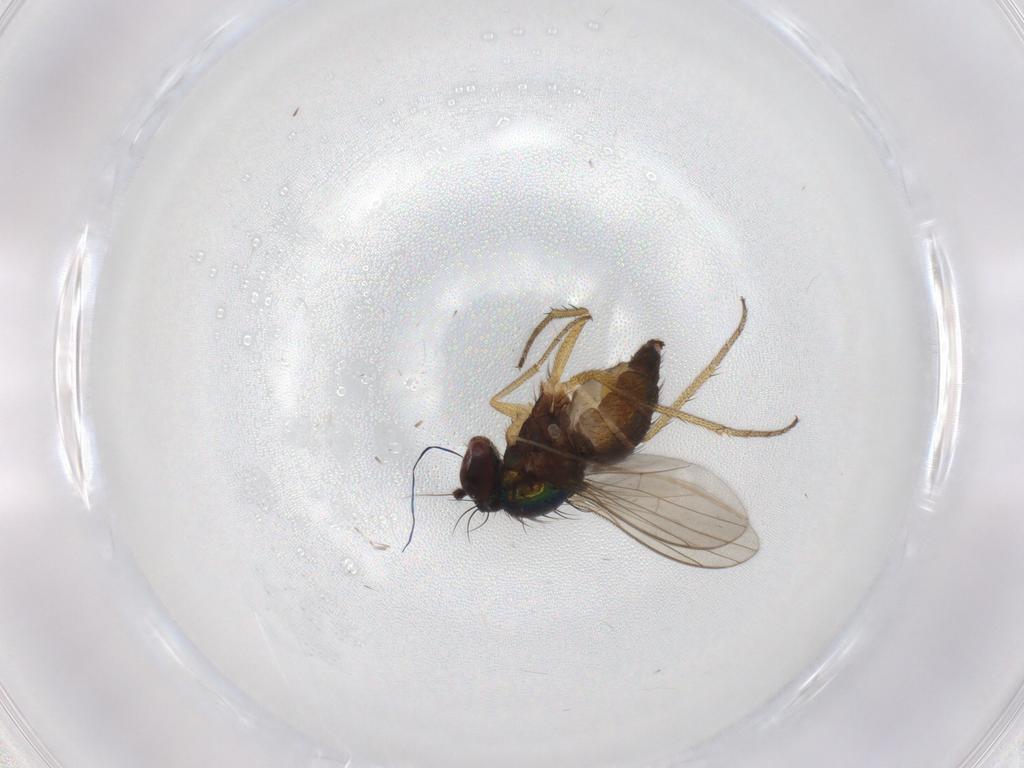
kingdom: Animalia
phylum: Arthropoda
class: Insecta
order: Diptera
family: Dolichopodidae
